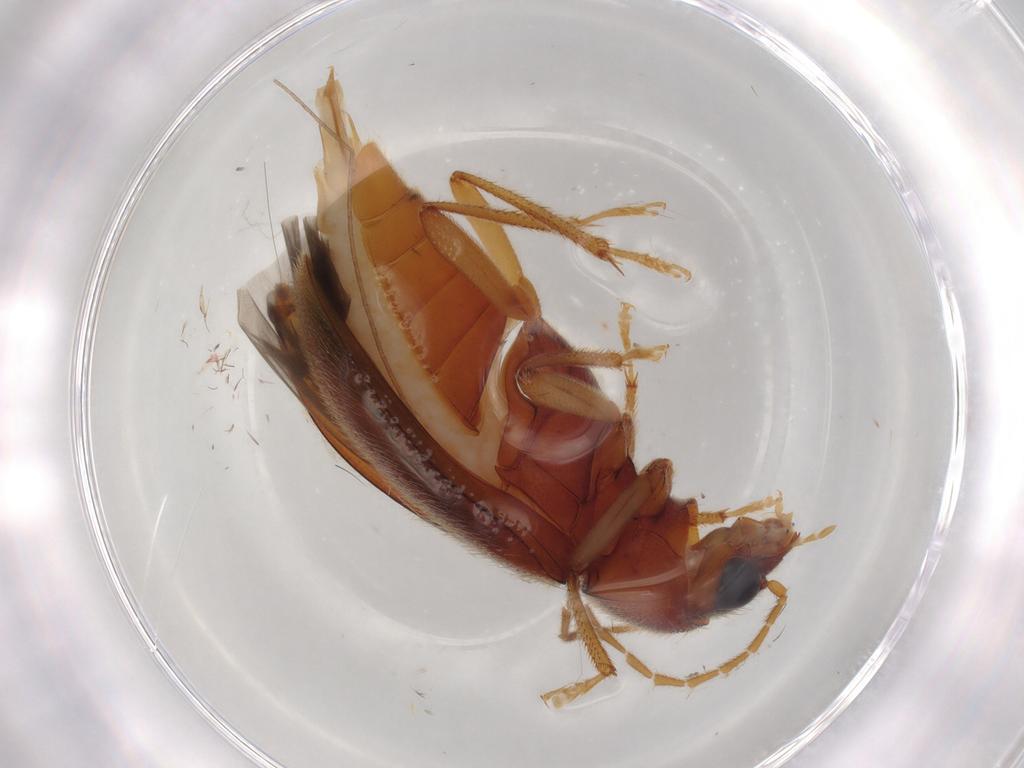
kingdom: Animalia
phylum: Arthropoda
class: Insecta
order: Coleoptera
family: Ptilodactylidae
